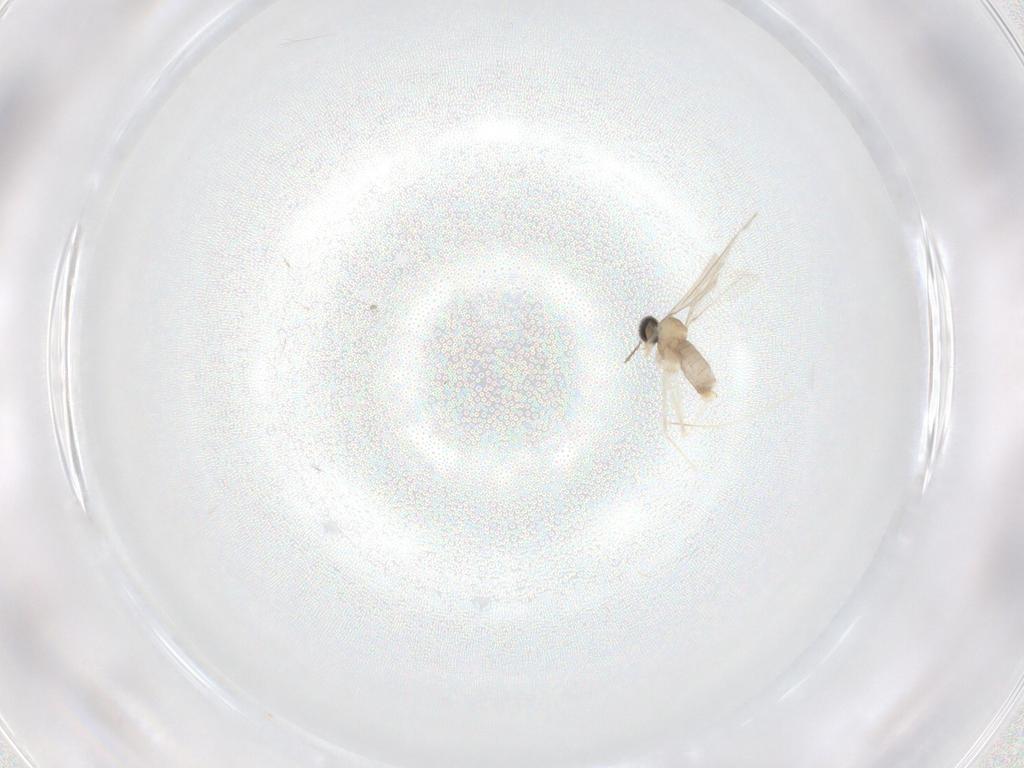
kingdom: Animalia
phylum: Arthropoda
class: Insecta
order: Diptera
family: Cecidomyiidae
